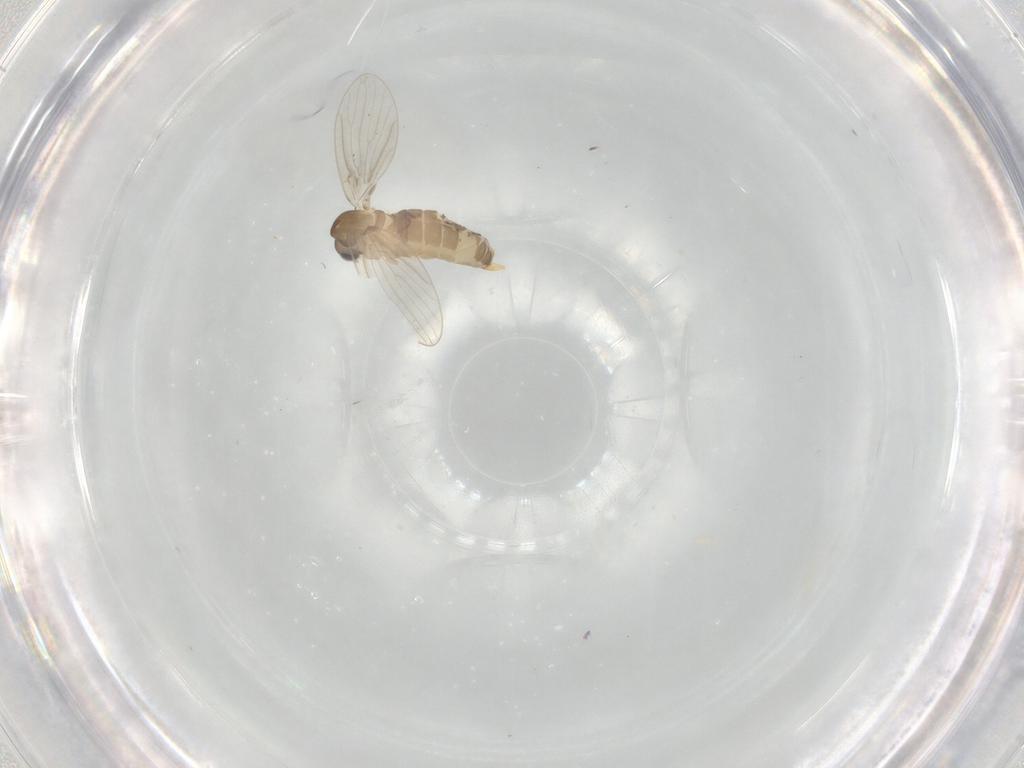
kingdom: Animalia
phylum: Arthropoda
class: Insecta
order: Diptera
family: Psychodidae
